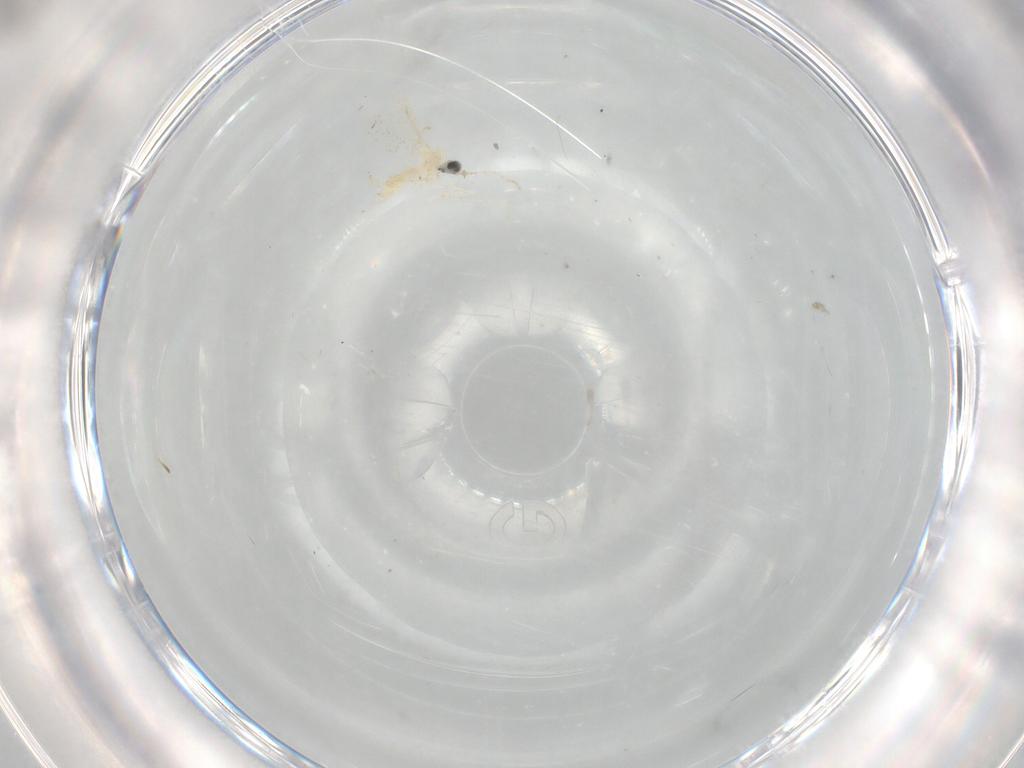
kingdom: Animalia
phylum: Arthropoda
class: Insecta
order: Diptera
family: Cecidomyiidae
